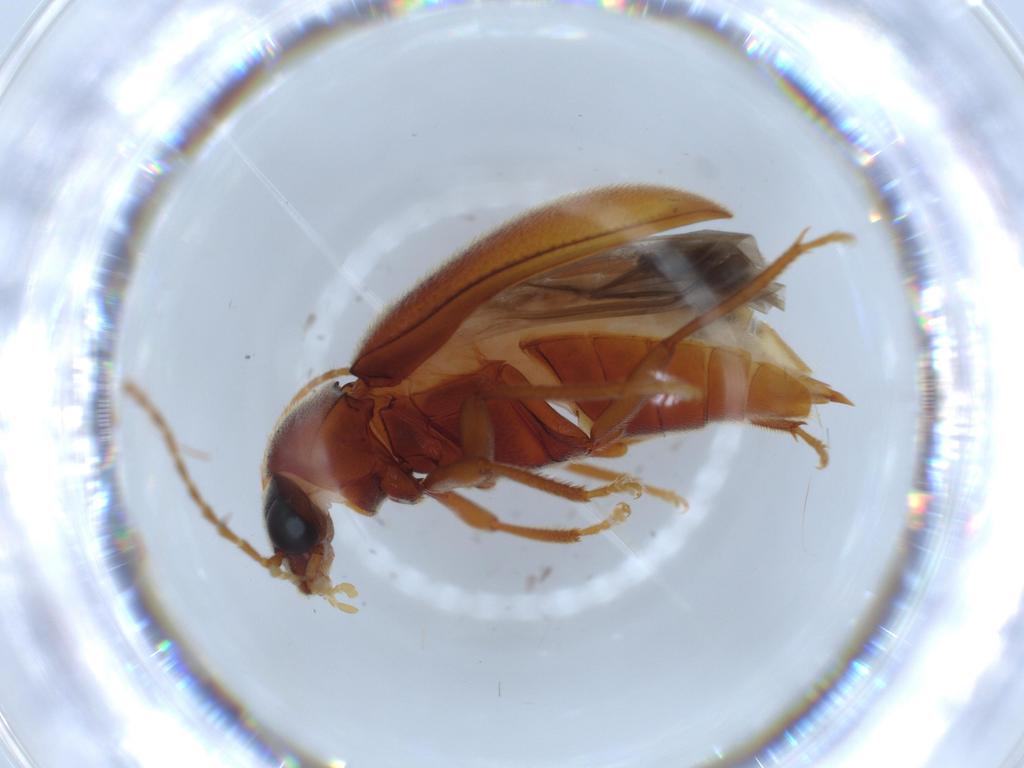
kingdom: Animalia
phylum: Arthropoda
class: Insecta
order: Coleoptera
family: Ptilodactylidae
